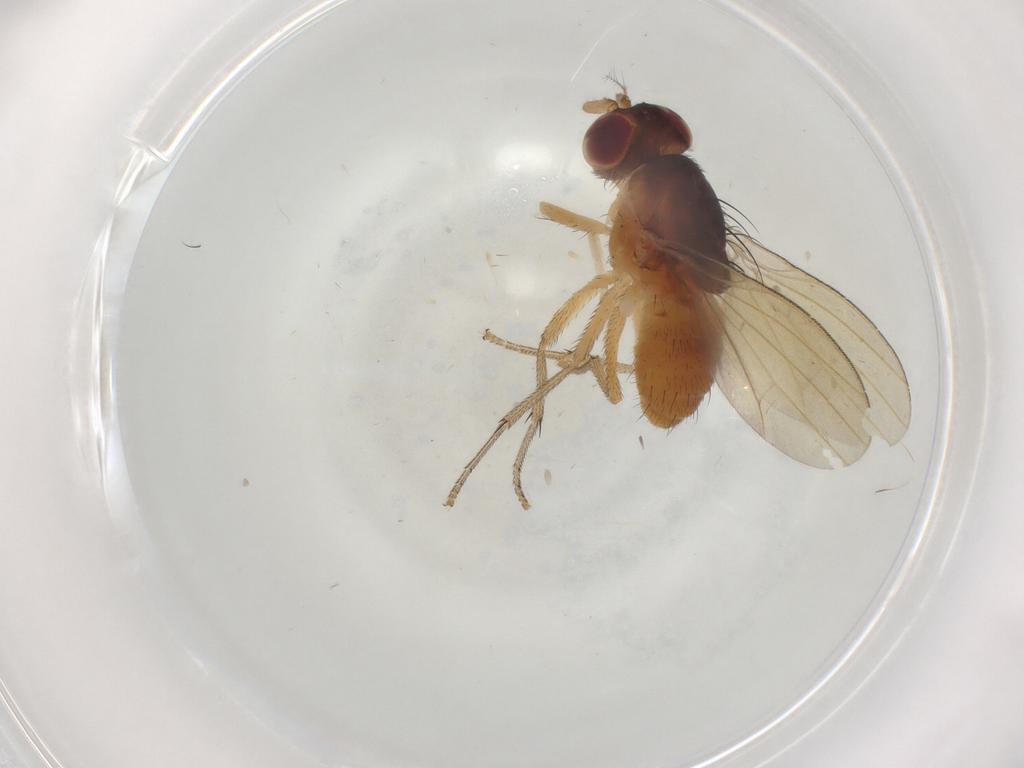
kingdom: Animalia
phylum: Arthropoda
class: Insecta
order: Diptera
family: Lauxaniidae
